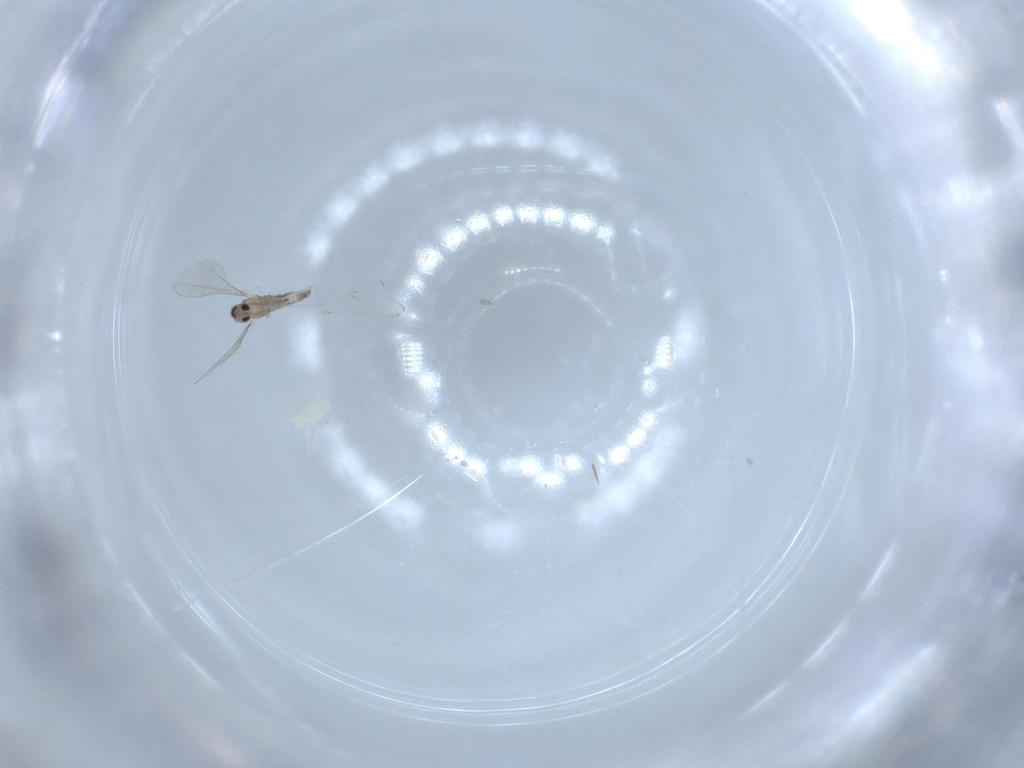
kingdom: Animalia
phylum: Arthropoda
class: Insecta
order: Diptera
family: Cecidomyiidae
